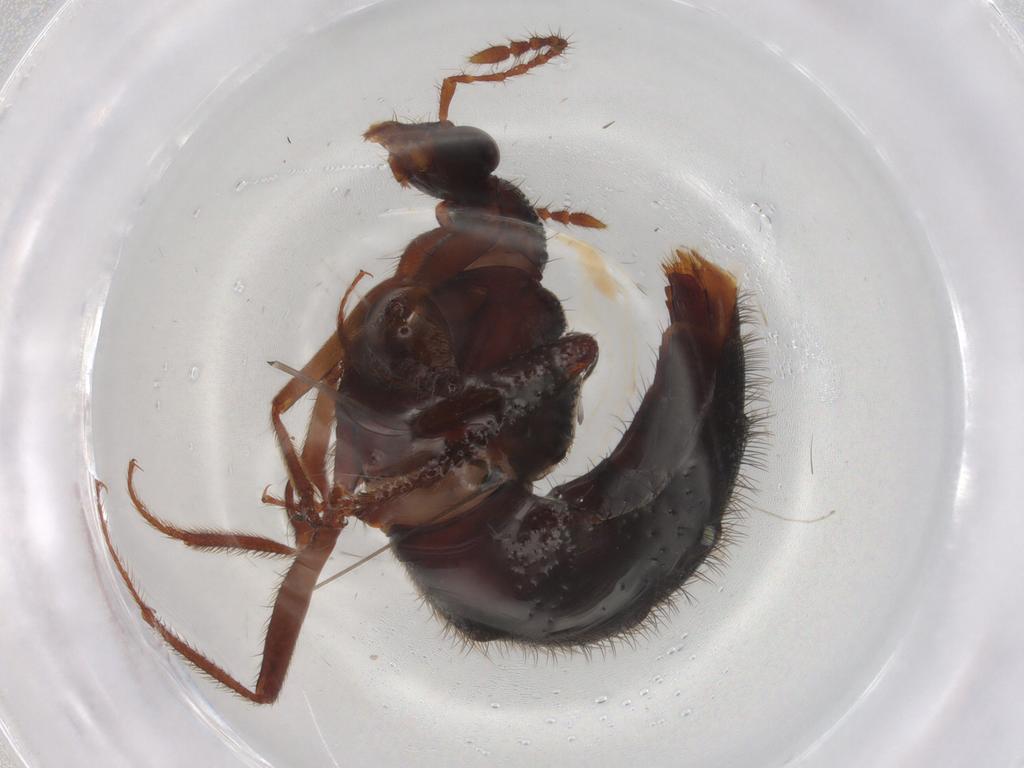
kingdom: Animalia
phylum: Arthropoda
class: Insecta
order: Coleoptera
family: Staphylinidae
